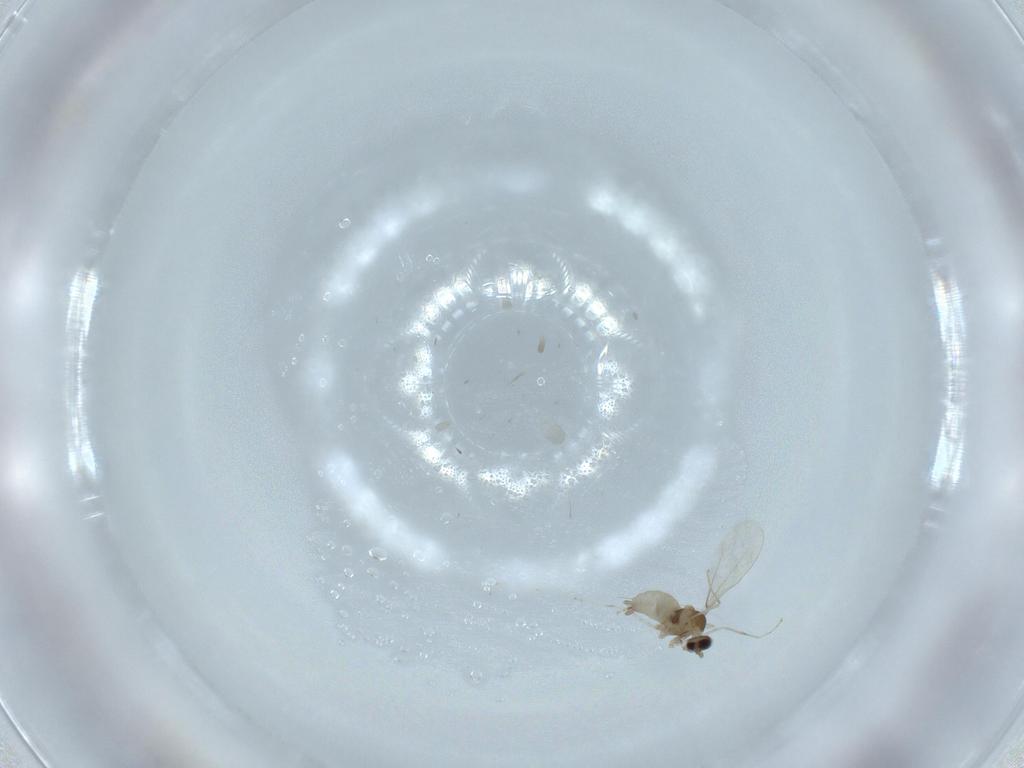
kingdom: Animalia
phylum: Arthropoda
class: Insecta
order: Diptera
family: Cecidomyiidae
